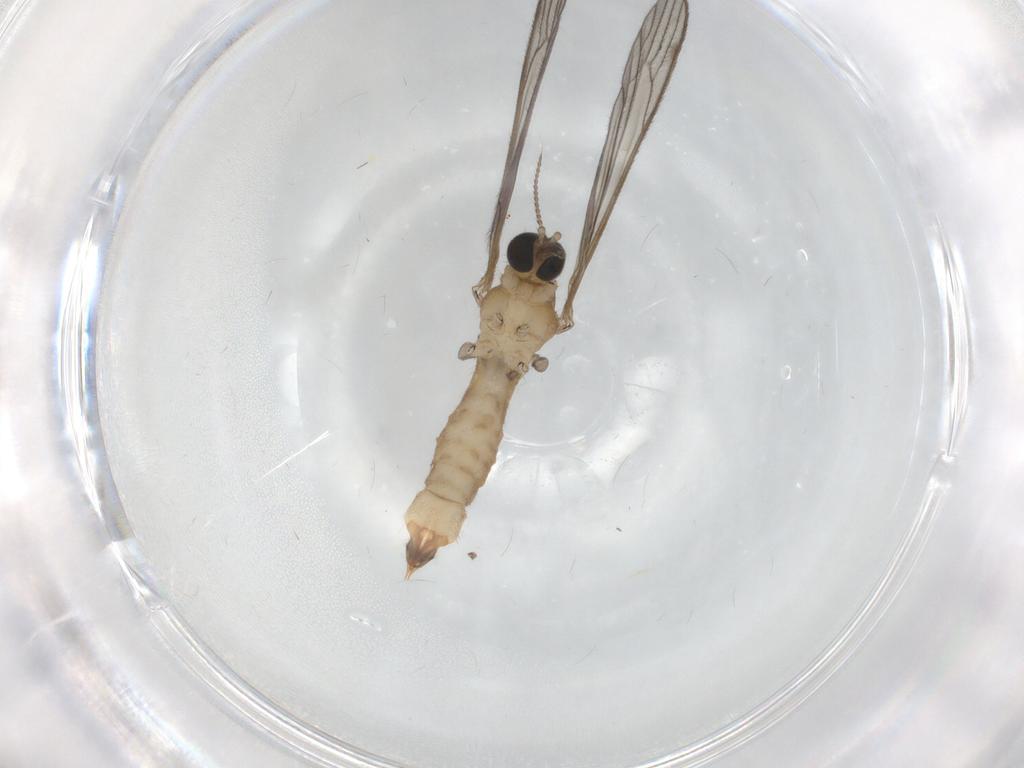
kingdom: Animalia
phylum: Arthropoda
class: Insecta
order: Diptera
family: Limoniidae
